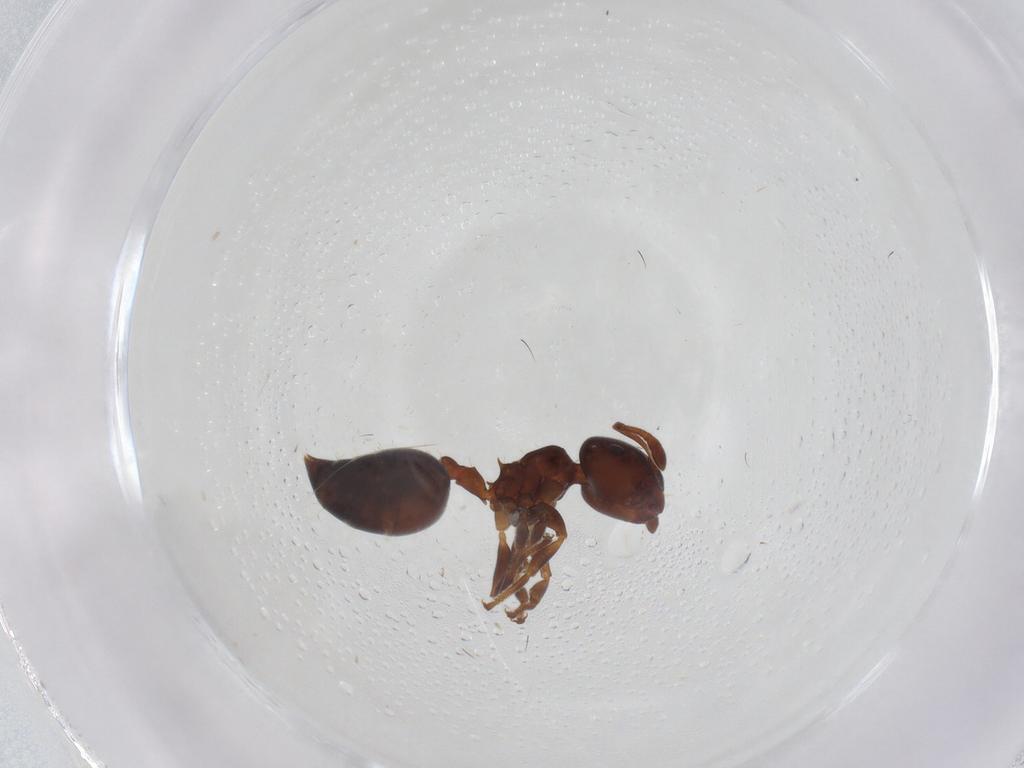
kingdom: Animalia
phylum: Arthropoda
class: Insecta
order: Hymenoptera
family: Formicidae
